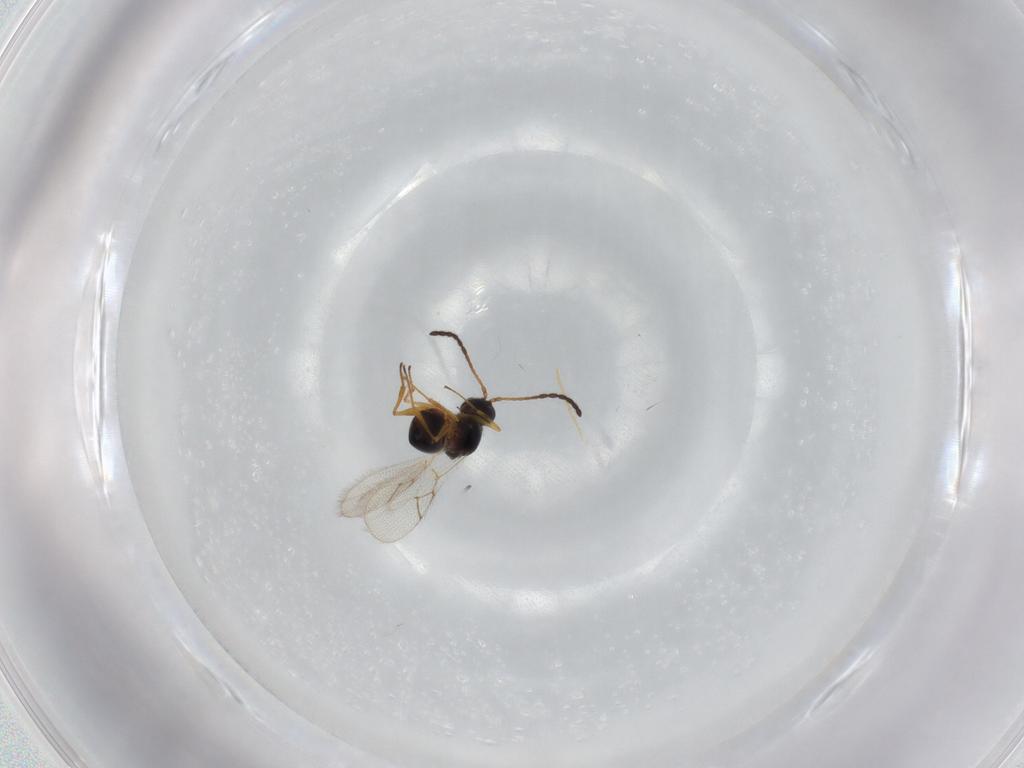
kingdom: Animalia
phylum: Arthropoda
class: Insecta
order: Hymenoptera
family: Figitidae
